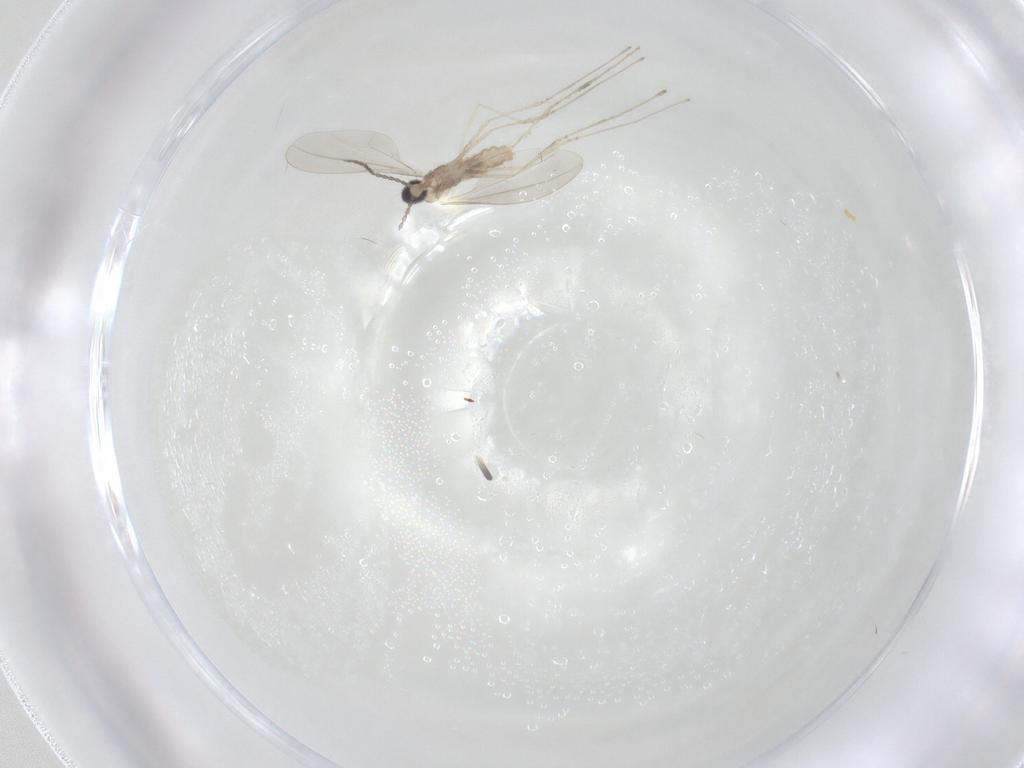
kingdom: Animalia
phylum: Arthropoda
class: Insecta
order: Diptera
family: Cecidomyiidae
